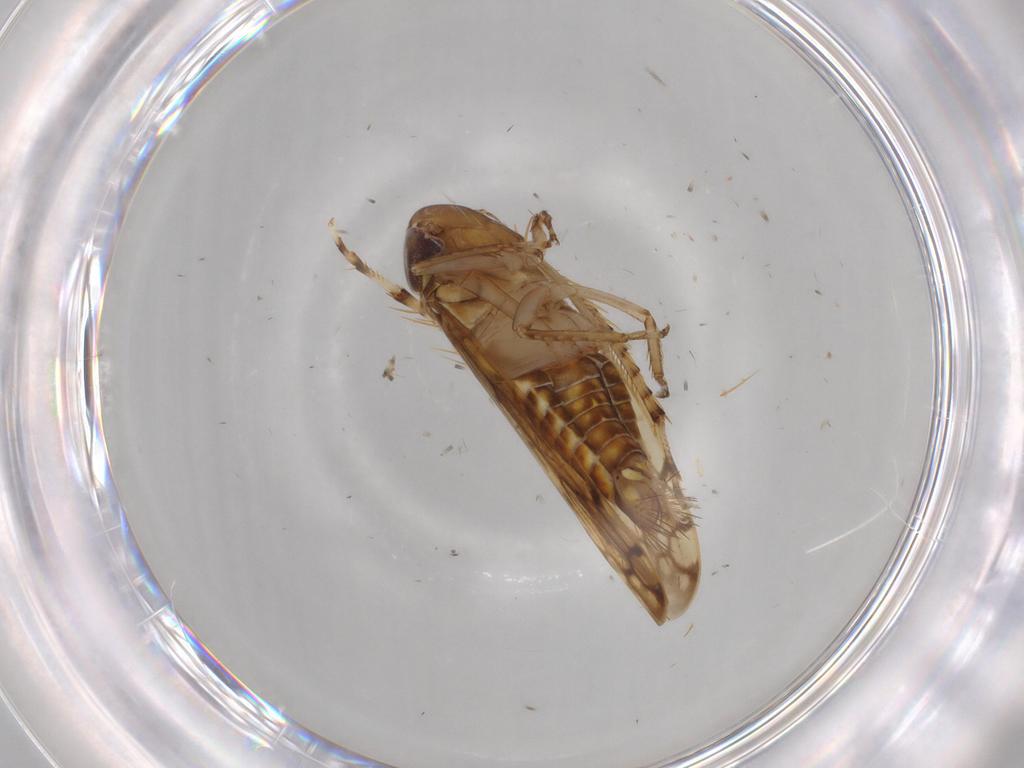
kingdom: Animalia
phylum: Arthropoda
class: Insecta
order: Hemiptera
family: Cicadellidae
